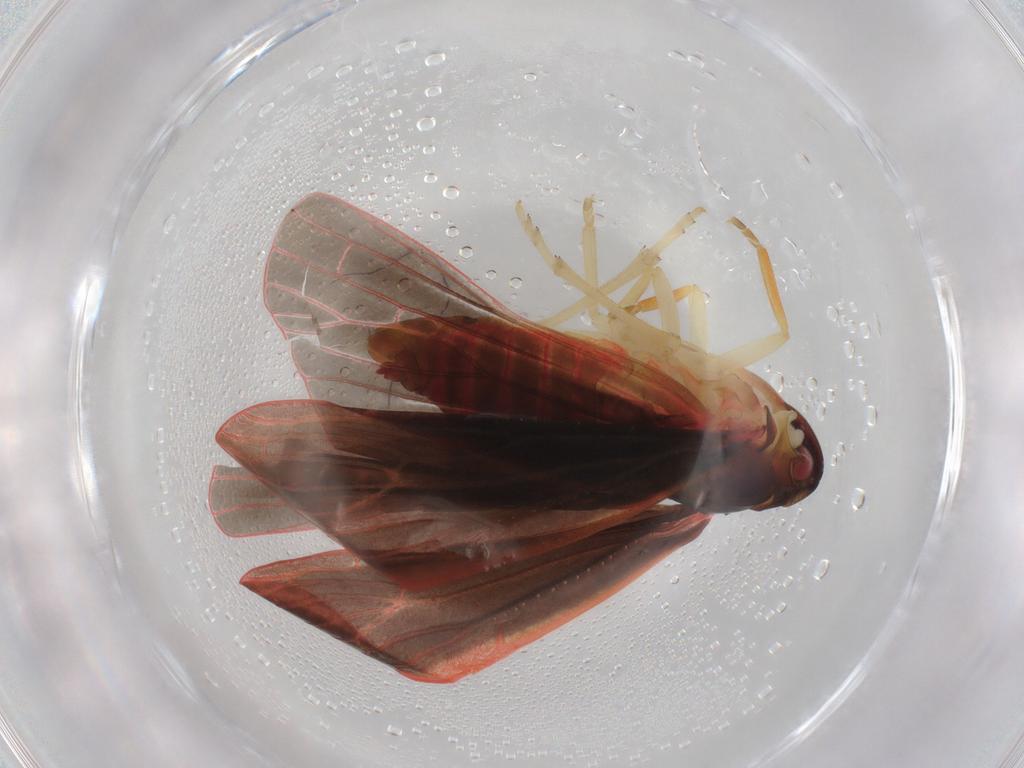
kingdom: Animalia
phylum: Arthropoda
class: Insecta
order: Hemiptera
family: Derbidae
